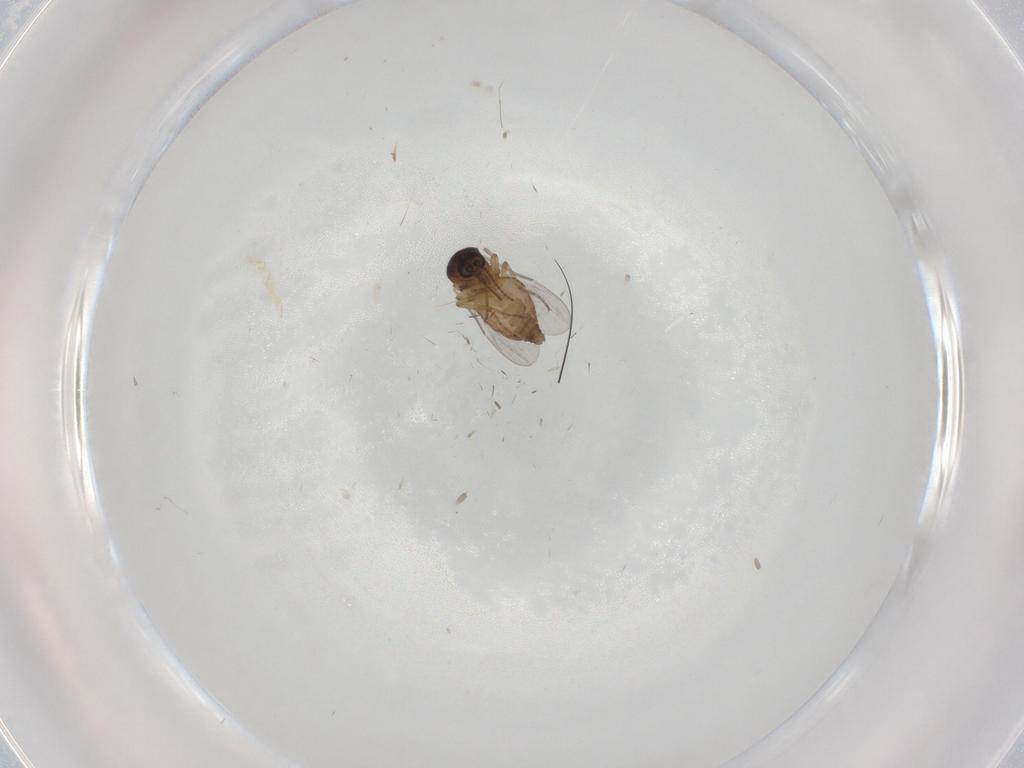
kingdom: Animalia
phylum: Arthropoda
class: Insecta
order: Diptera
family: Ceratopogonidae
